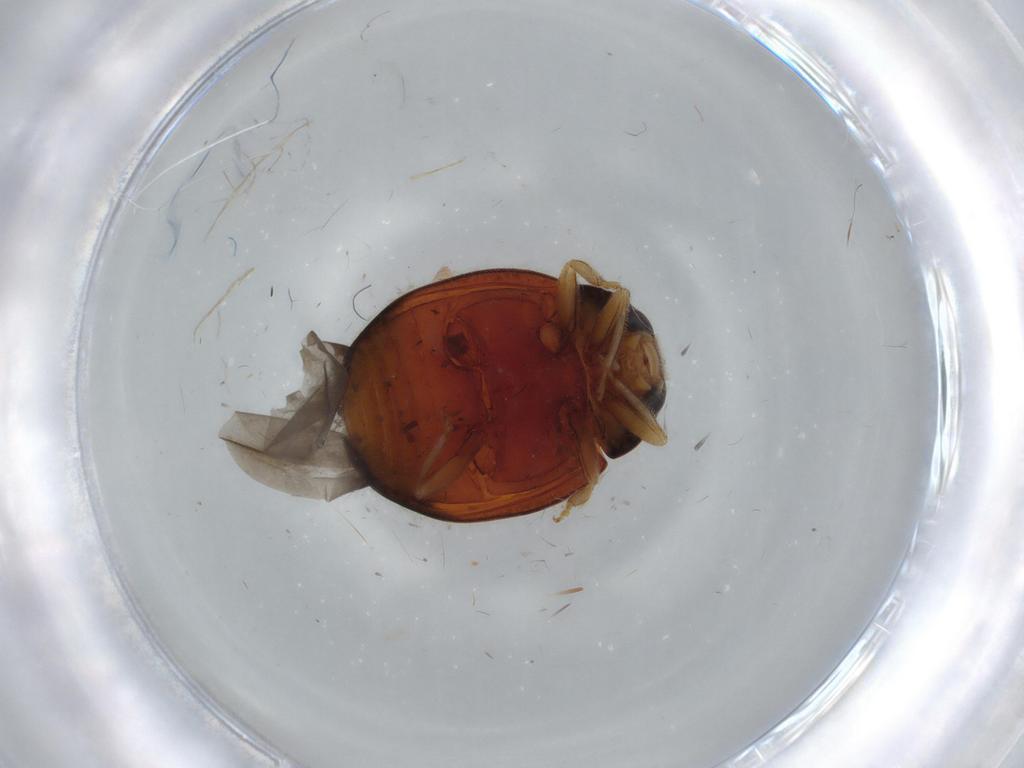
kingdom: Animalia
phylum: Arthropoda
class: Insecta
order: Coleoptera
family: Coccinellidae
